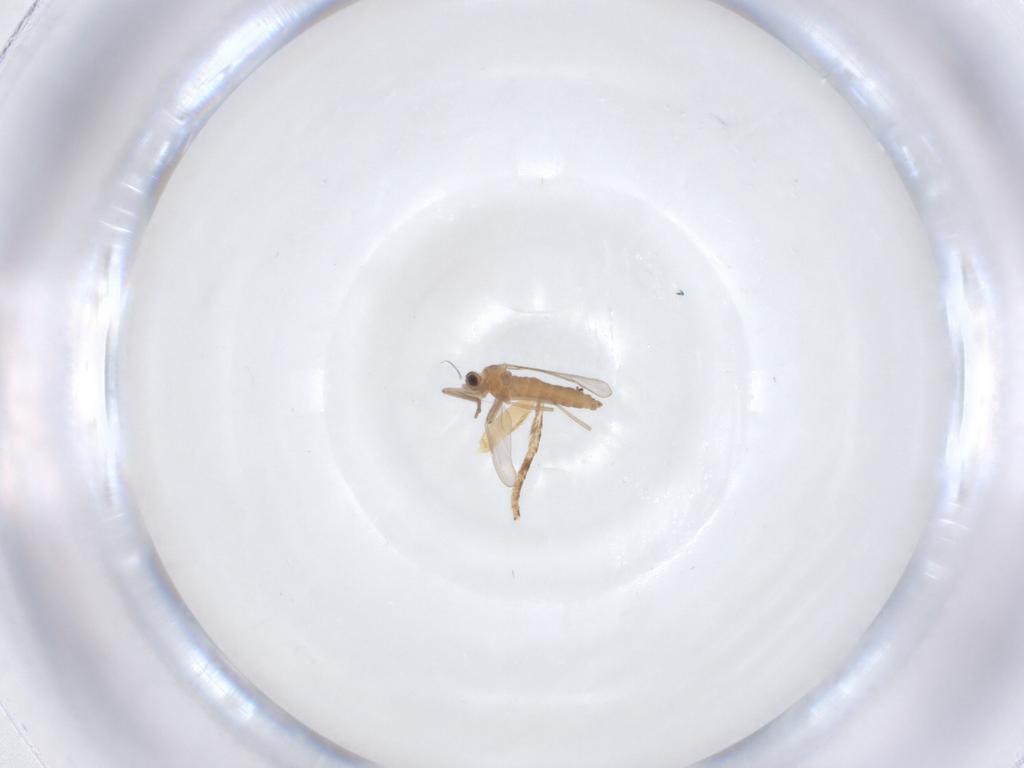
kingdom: Animalia
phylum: Arthropoda
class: Insecta
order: Diptera
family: Cecidomyiidae
